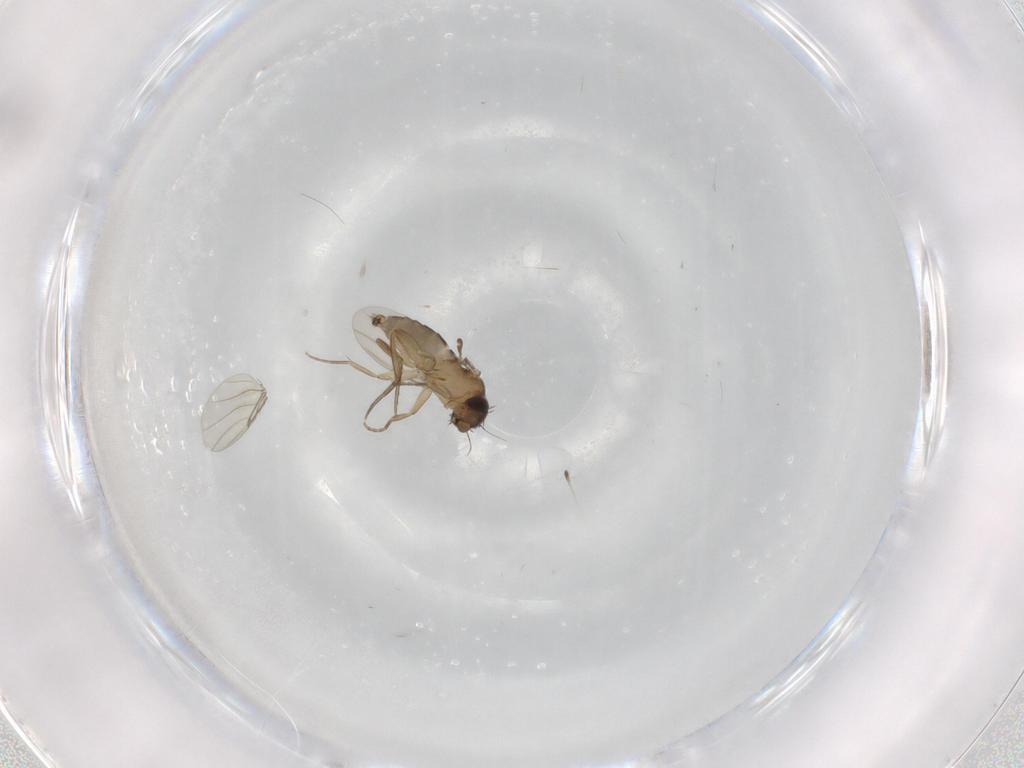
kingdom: Animalia
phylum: Arthropoda
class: Insecta
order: Diptera
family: Phoridae
